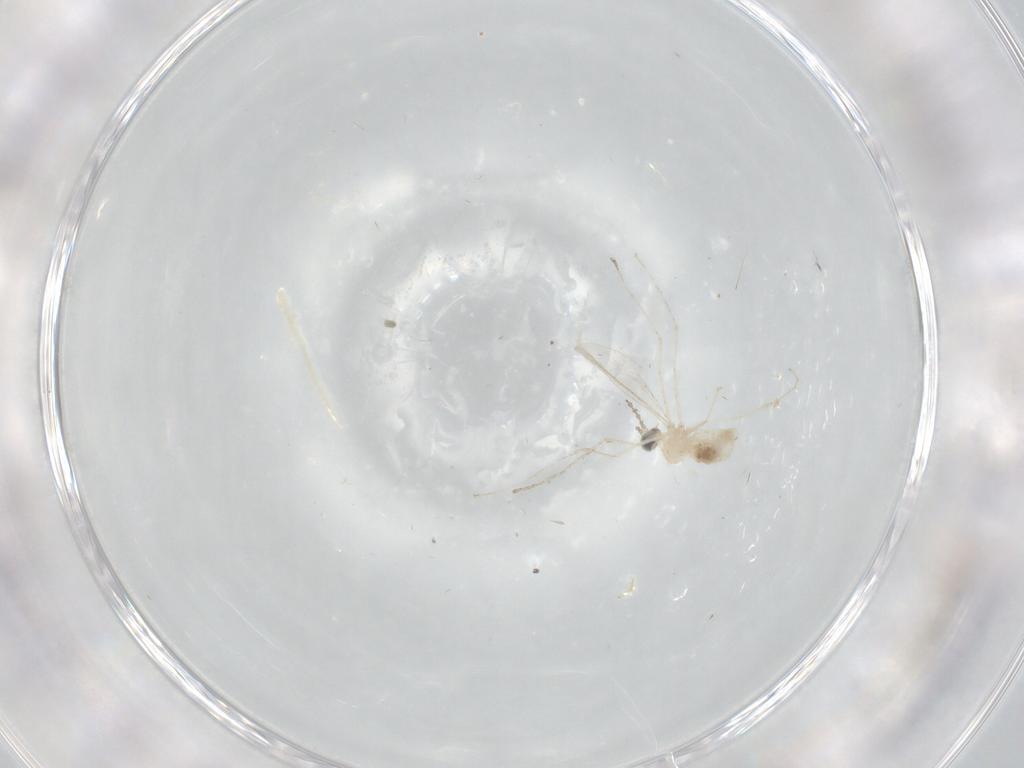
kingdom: Animalia
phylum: Arthropoda
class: Insecta
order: Diptera
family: Cecidomyiidae
